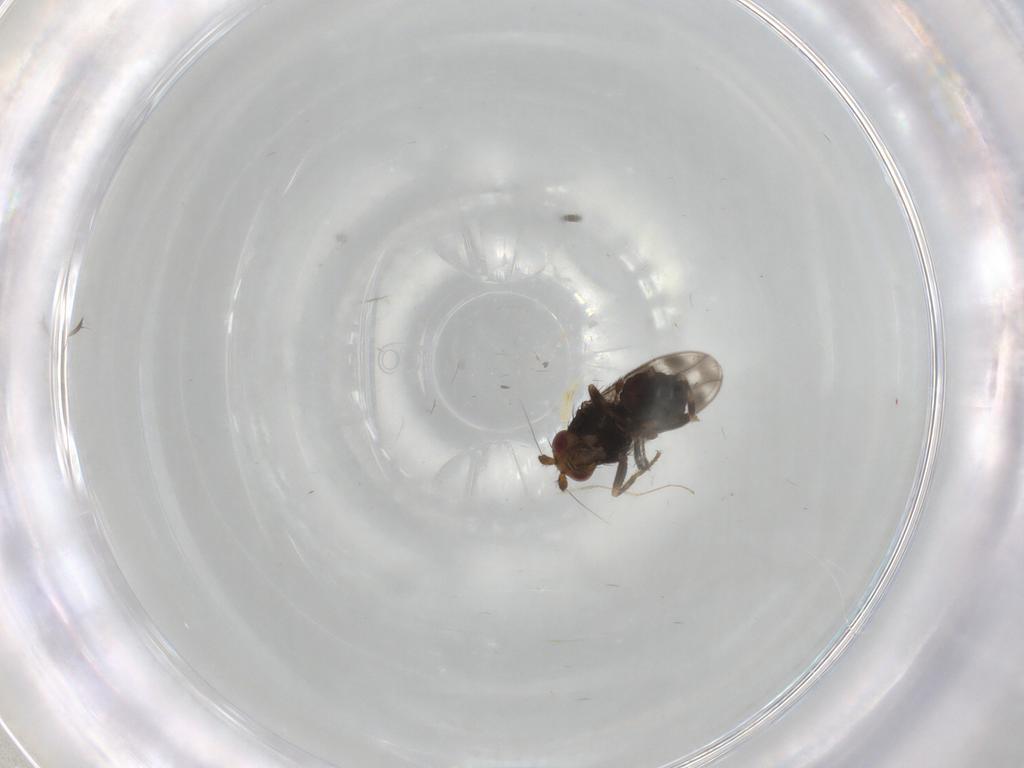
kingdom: Animalia
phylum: Arthropoda
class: Insecta
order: Diptera
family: Sphaeroceridae
